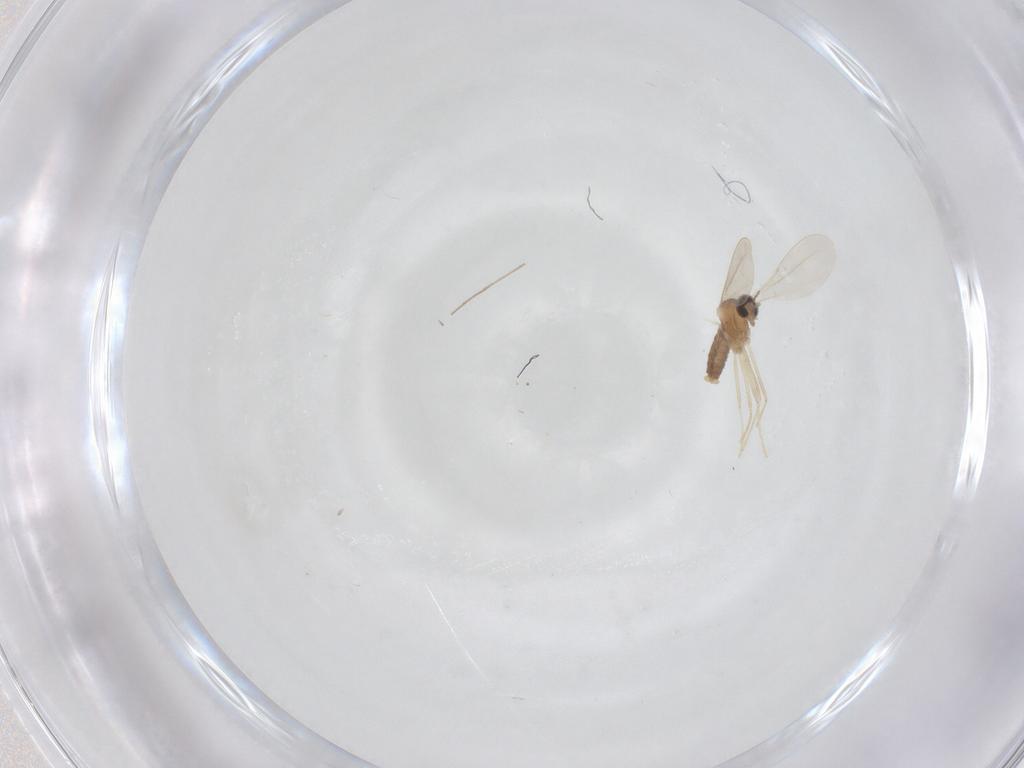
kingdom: Animalia
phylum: Arthropoda
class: Insecta
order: Diptera
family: Cecidomyiidae
